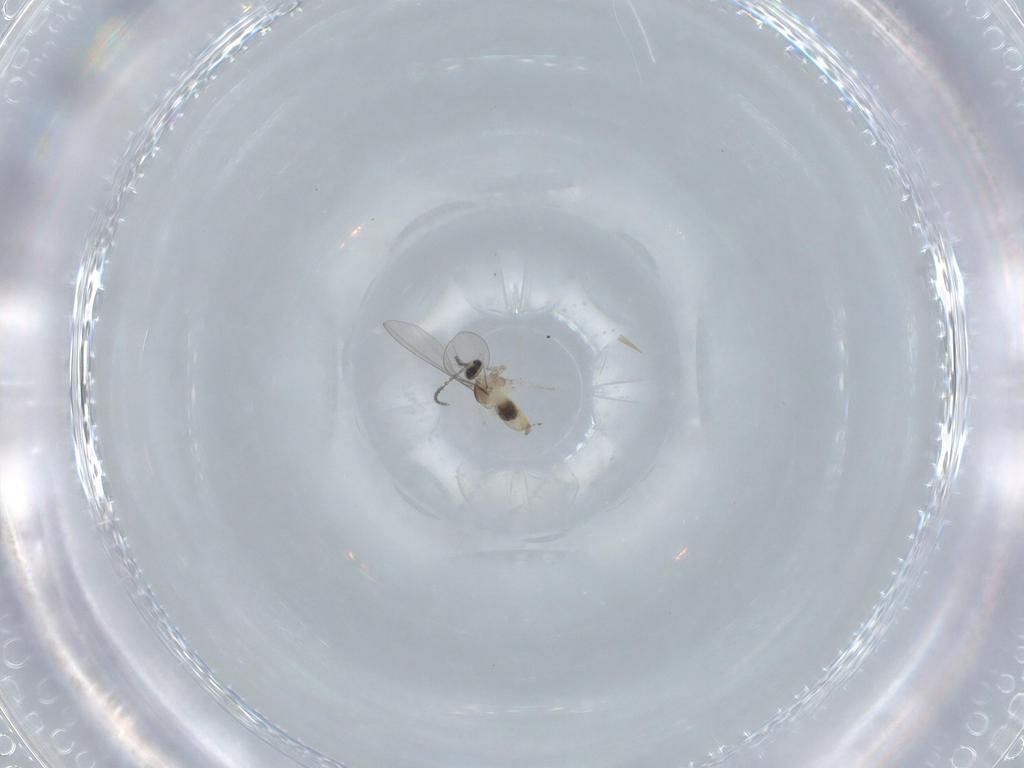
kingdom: Animalia
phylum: Arthropoda
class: Insecta
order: Diptera
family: Cecidomyiidae
